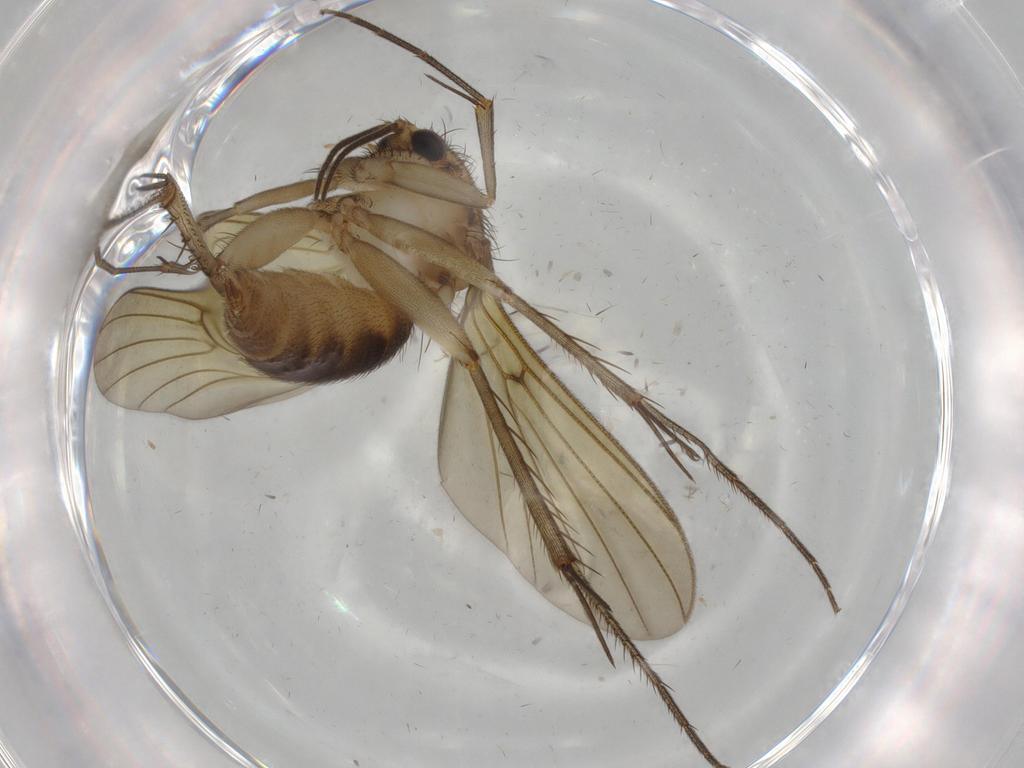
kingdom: Animalia
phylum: Arthropoda
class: Insecta
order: Diptera
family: Limoniidae
